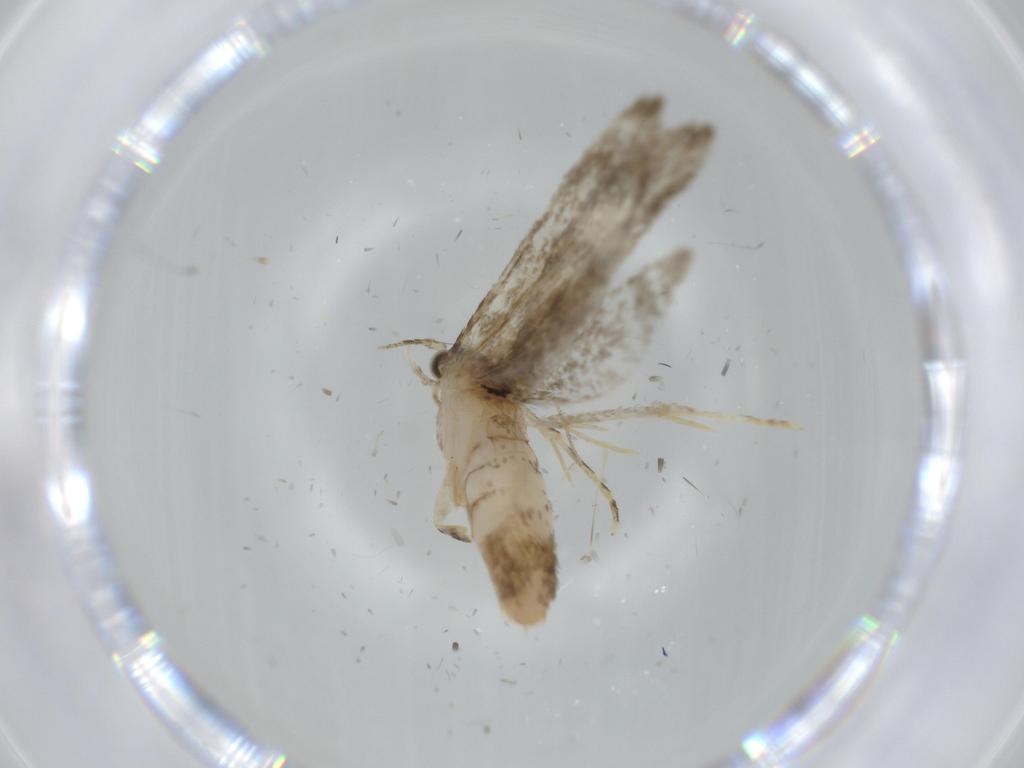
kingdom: Animalia
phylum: Arthropoda
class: Insecta
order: Lepidoptera
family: Tineidae
